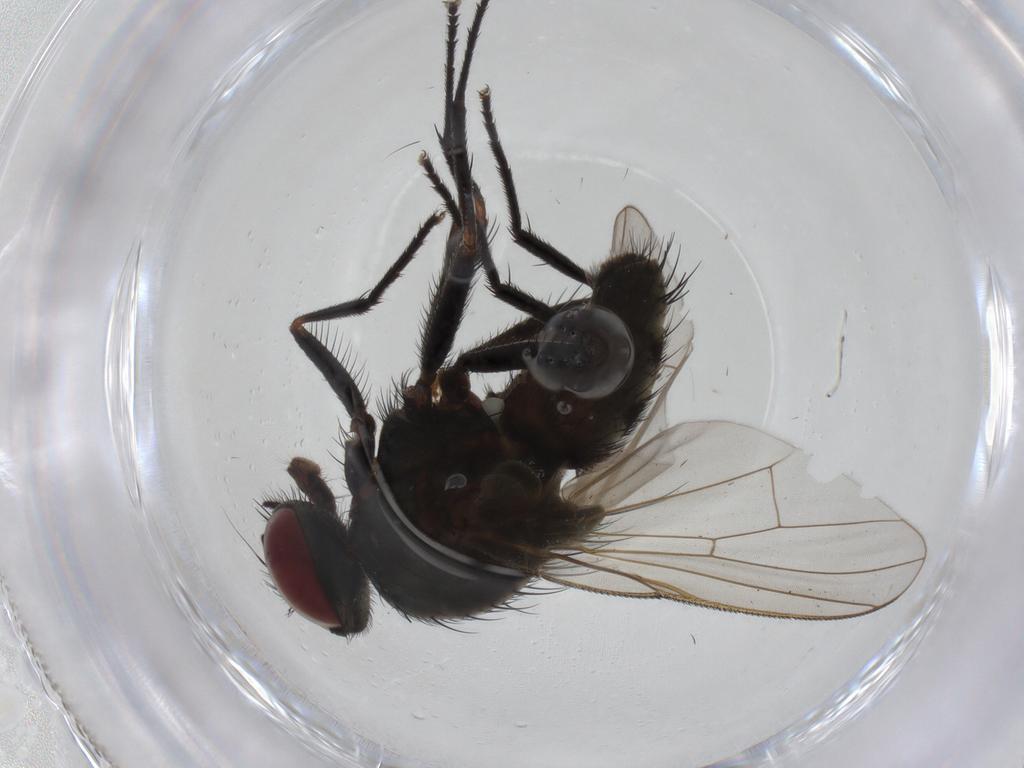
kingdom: Animalia
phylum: Arthropoda
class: Insecta
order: Diptera
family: Muscidae
